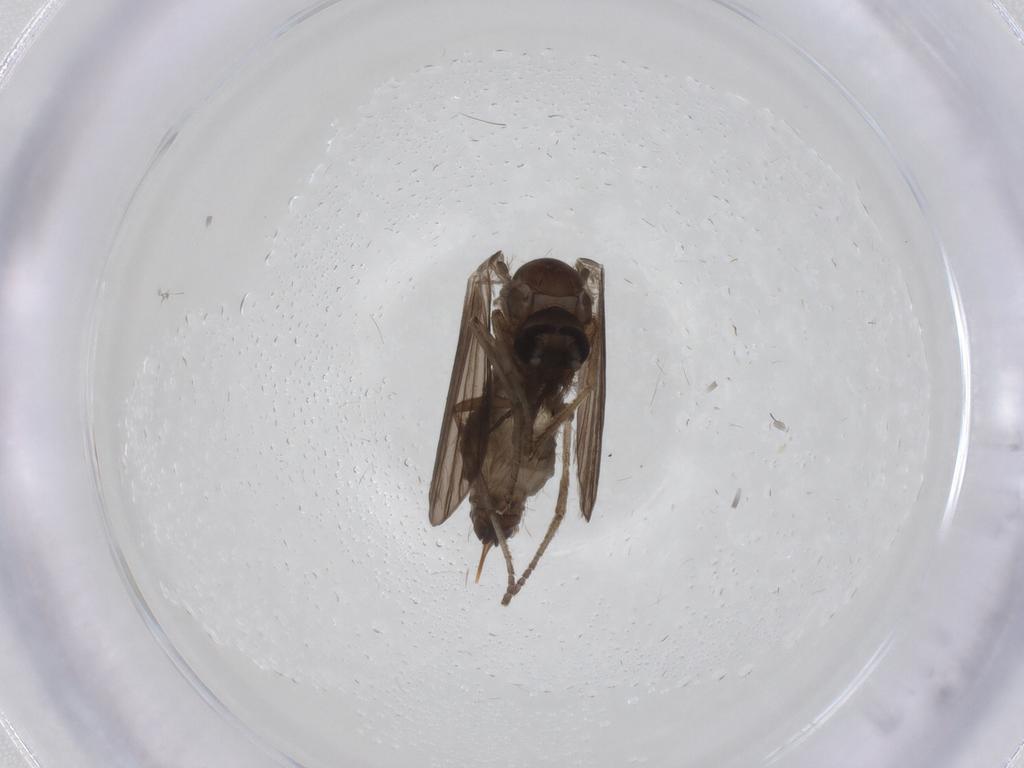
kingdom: Animalia
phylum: Arthropoda
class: Insecta
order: Diptera
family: Psychodidae
